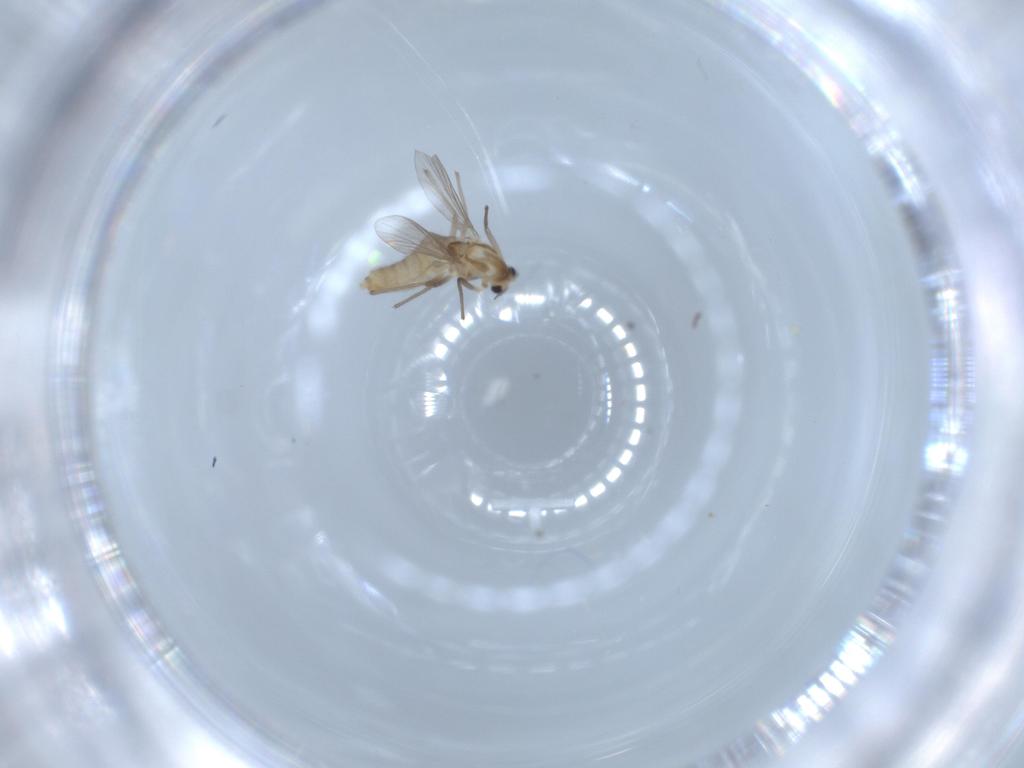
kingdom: Animalia
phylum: Arthropoda
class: Insecta
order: Diptera
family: Chironomidae
